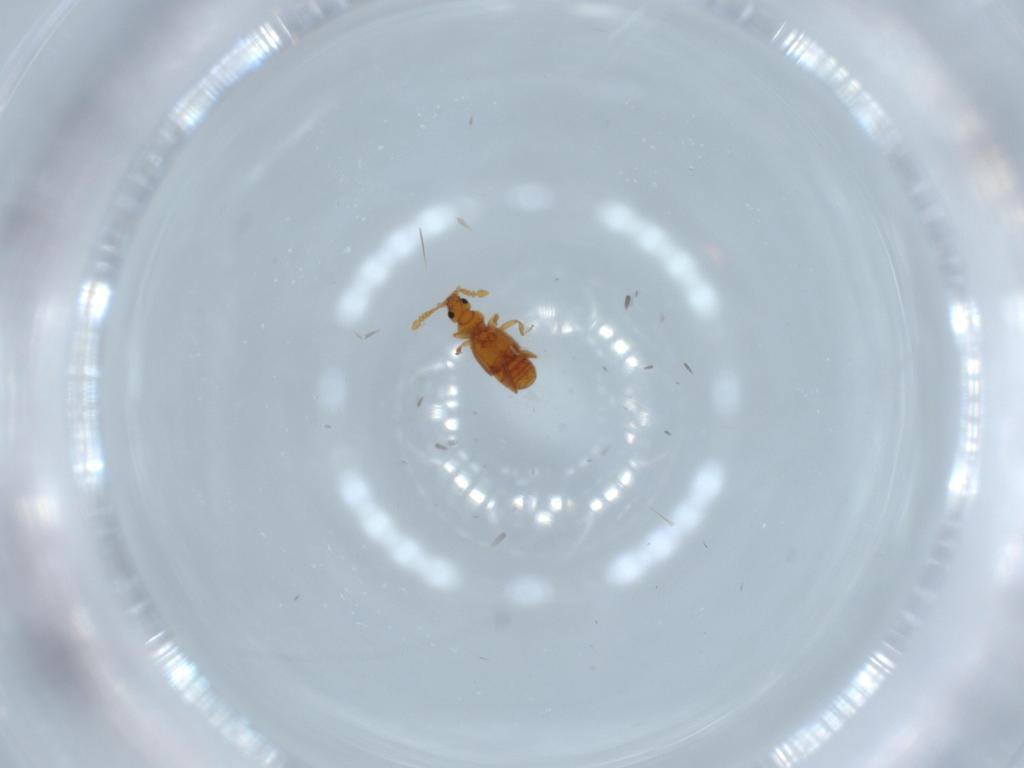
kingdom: Animalia
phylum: Arthropoda
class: Insecta
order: Coleoptera
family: Staphylinidae
